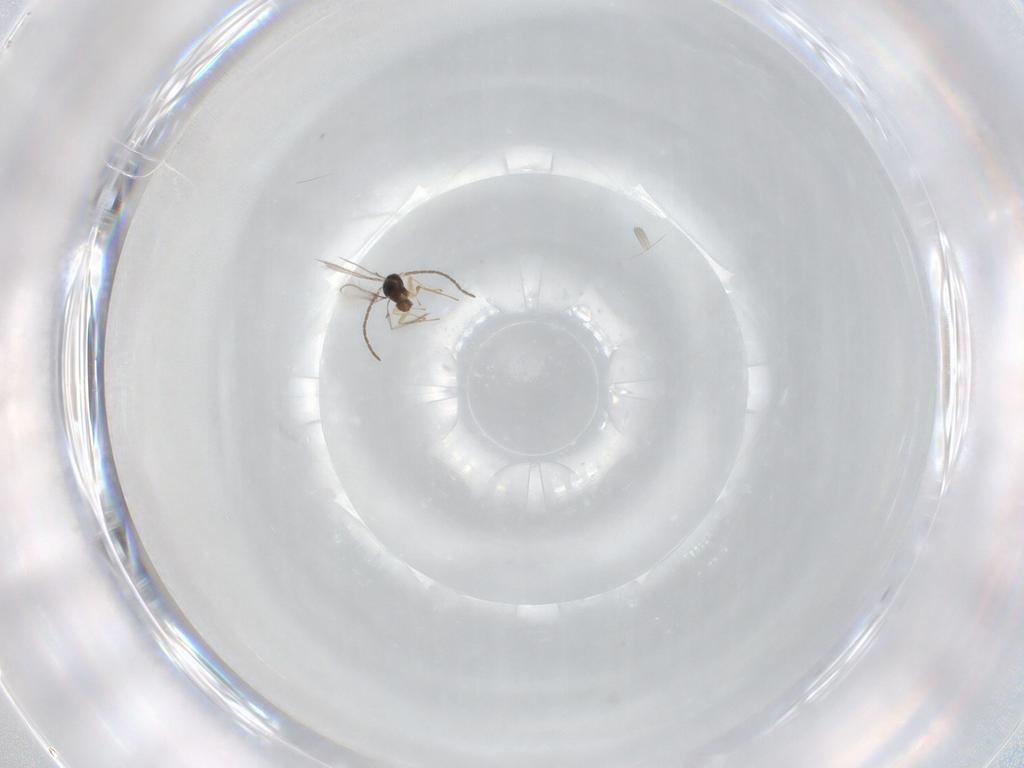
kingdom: Animalia
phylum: Arthropoda
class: Insecta
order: Hymenoptera
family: Mymaridae
